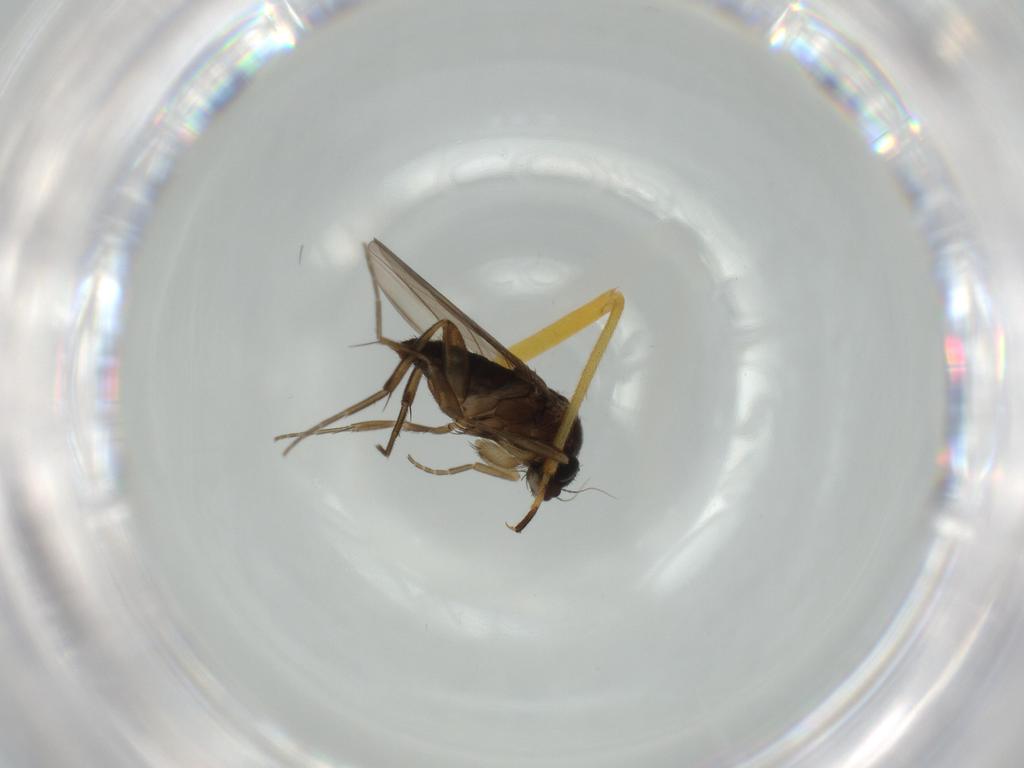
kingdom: Animalia
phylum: Arthropoda
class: Insecta
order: Diptera
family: Phoridae
